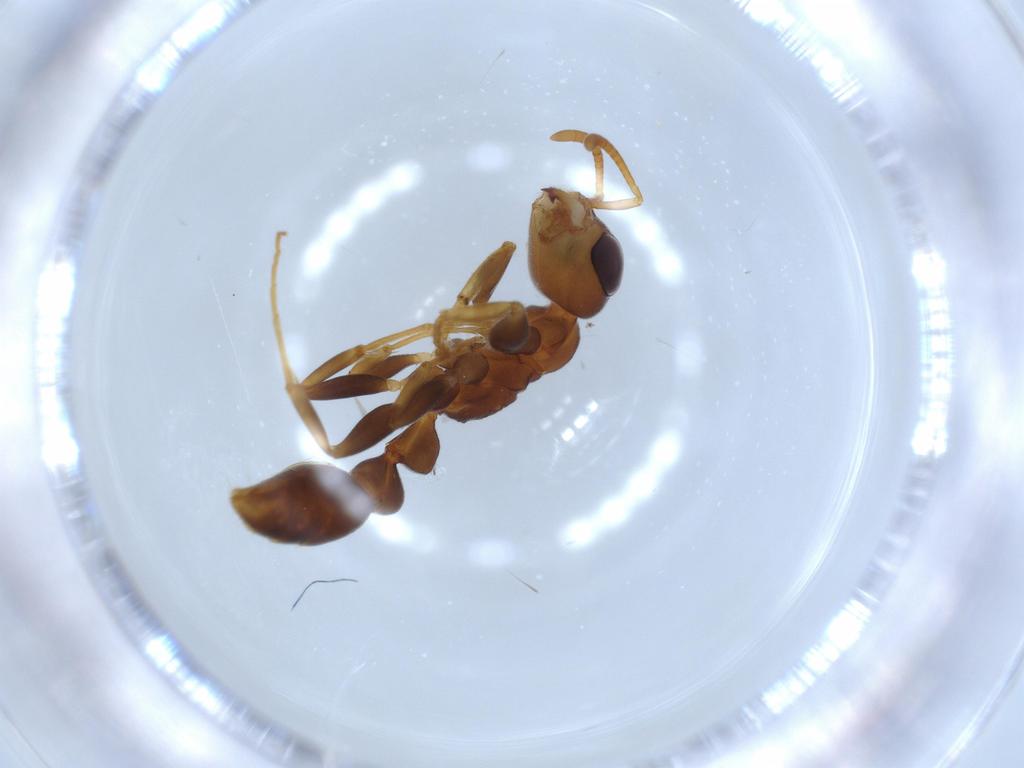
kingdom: Animalia
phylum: Arthropoda
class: Insecta
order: Hymenoptera
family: Formicidae
